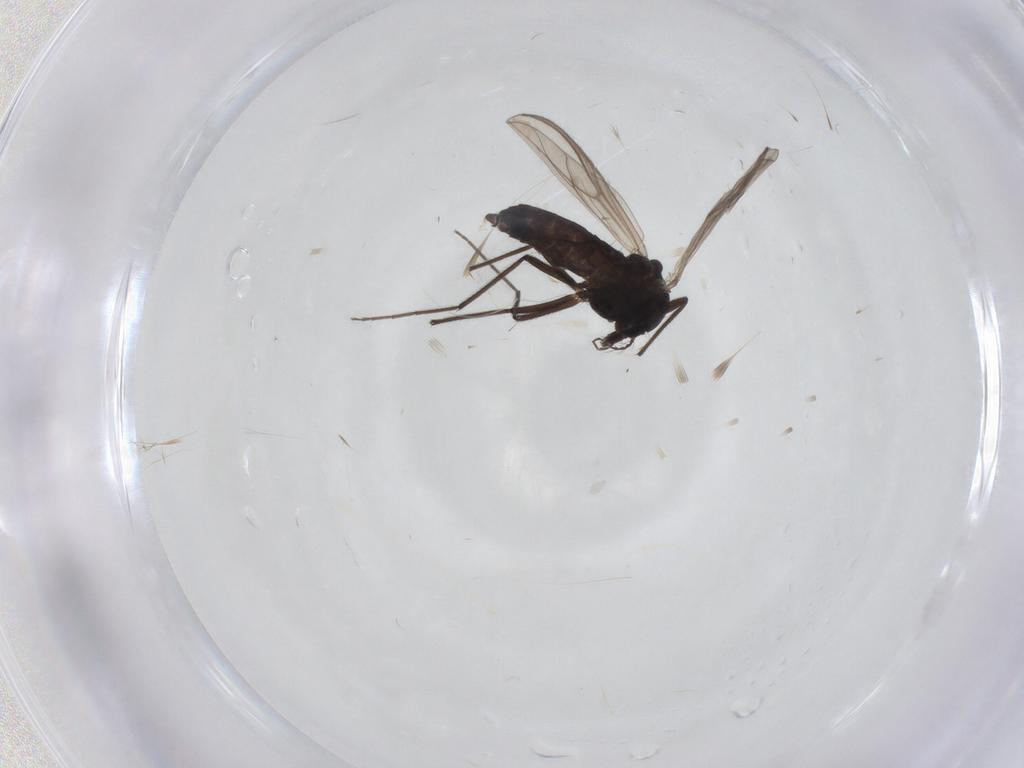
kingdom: Animalia
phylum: Arthropoda
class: Insecta
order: Diptera
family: Chironomidae
